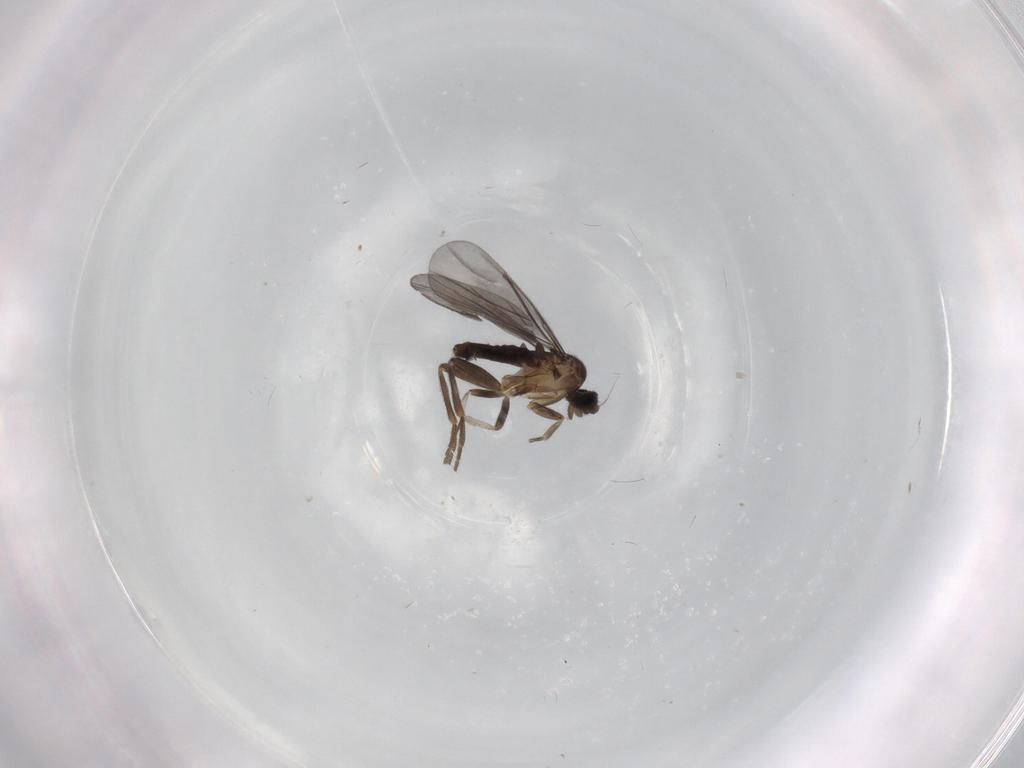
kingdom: Animalia
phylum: Arthropoda
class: Insecta
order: Diptera
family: Phoridae
